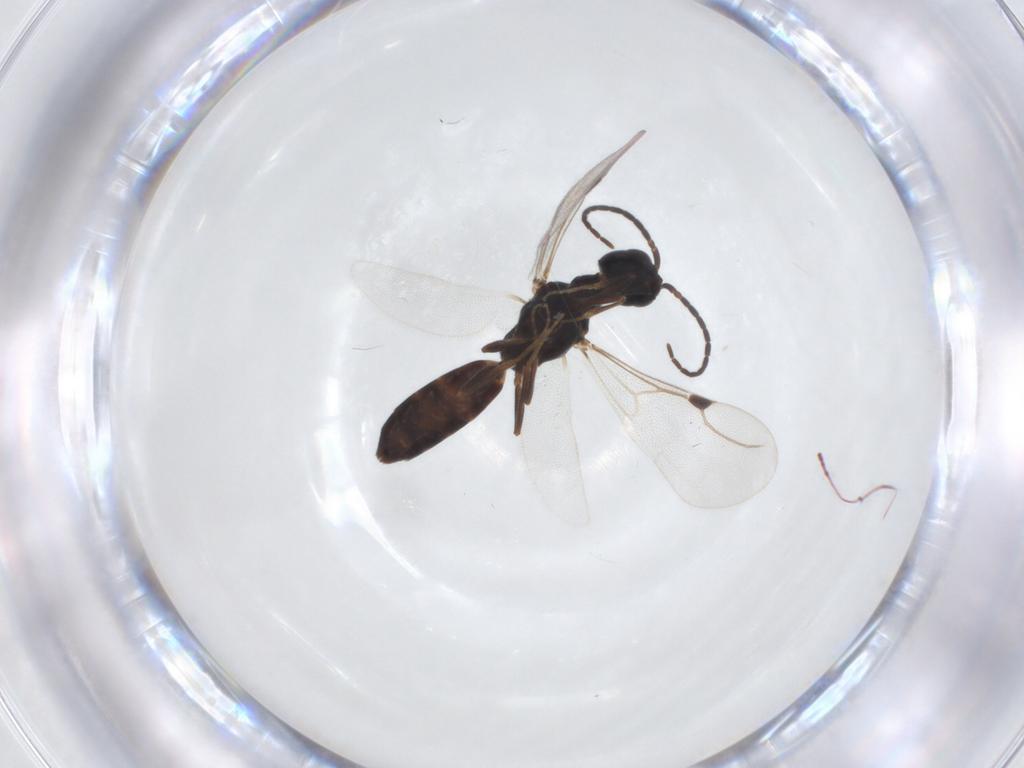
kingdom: Animalia
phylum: Arthropoda
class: Insecta
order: Hymenoptera
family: Bethylidae
